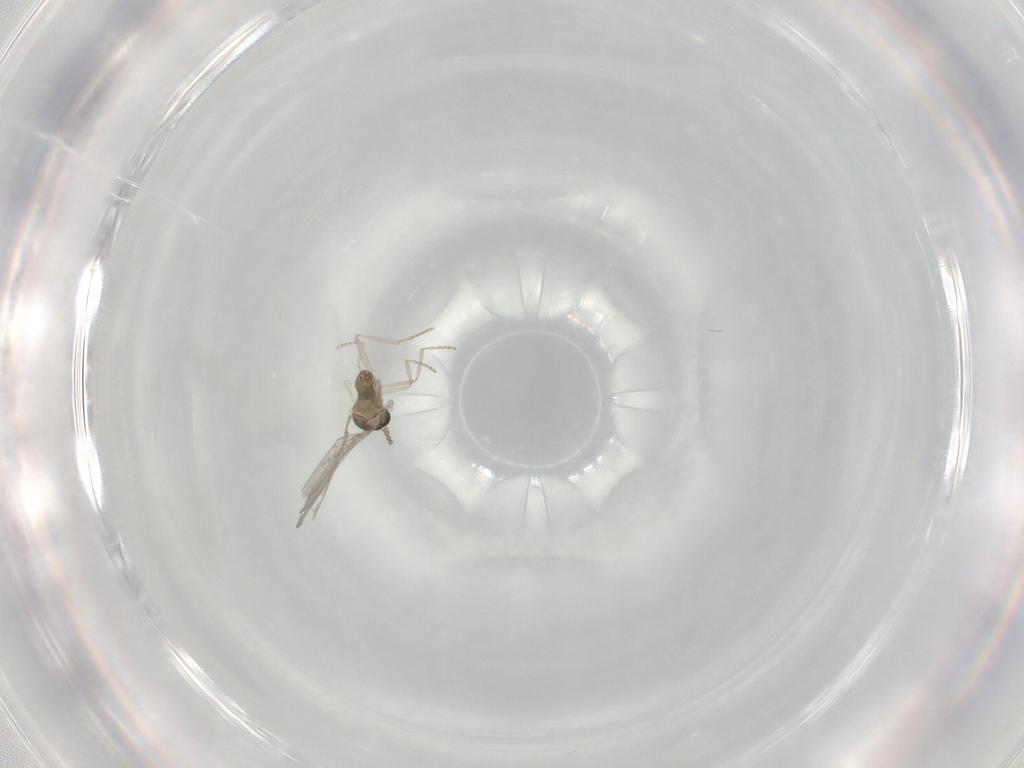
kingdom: Animalia
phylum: Arthropoda
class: Insecta
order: Diptera
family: Cecidomyiidae
